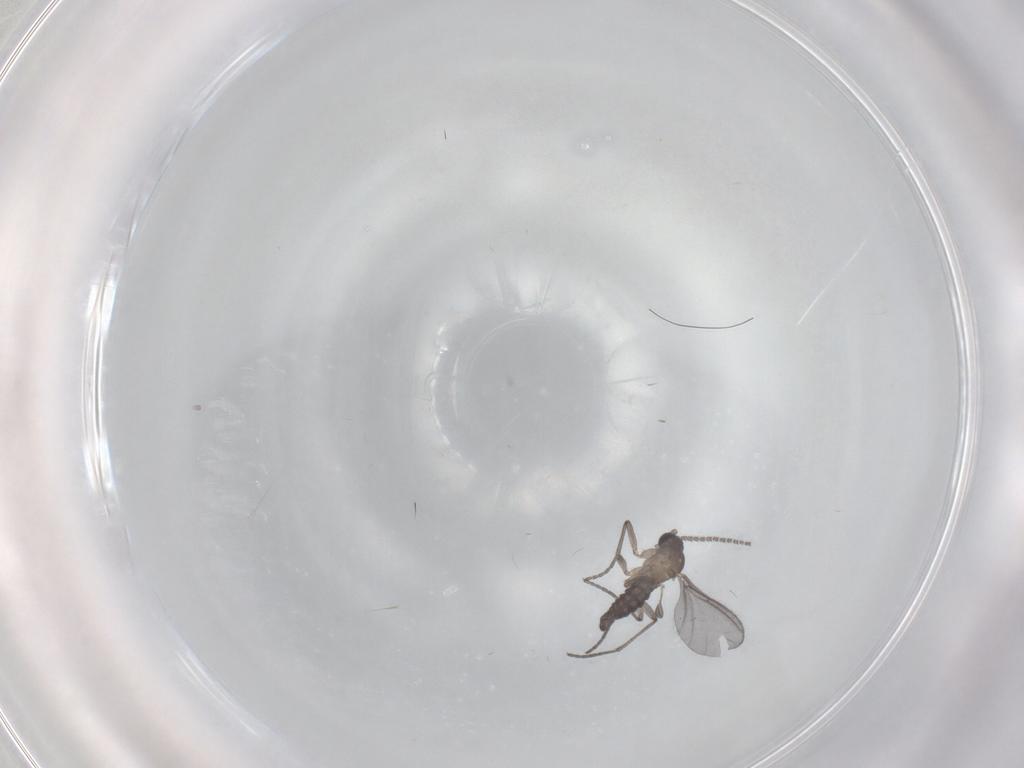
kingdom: Animalia
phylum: Arthropoda
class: Insecta
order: Diptera
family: Sciaridae
